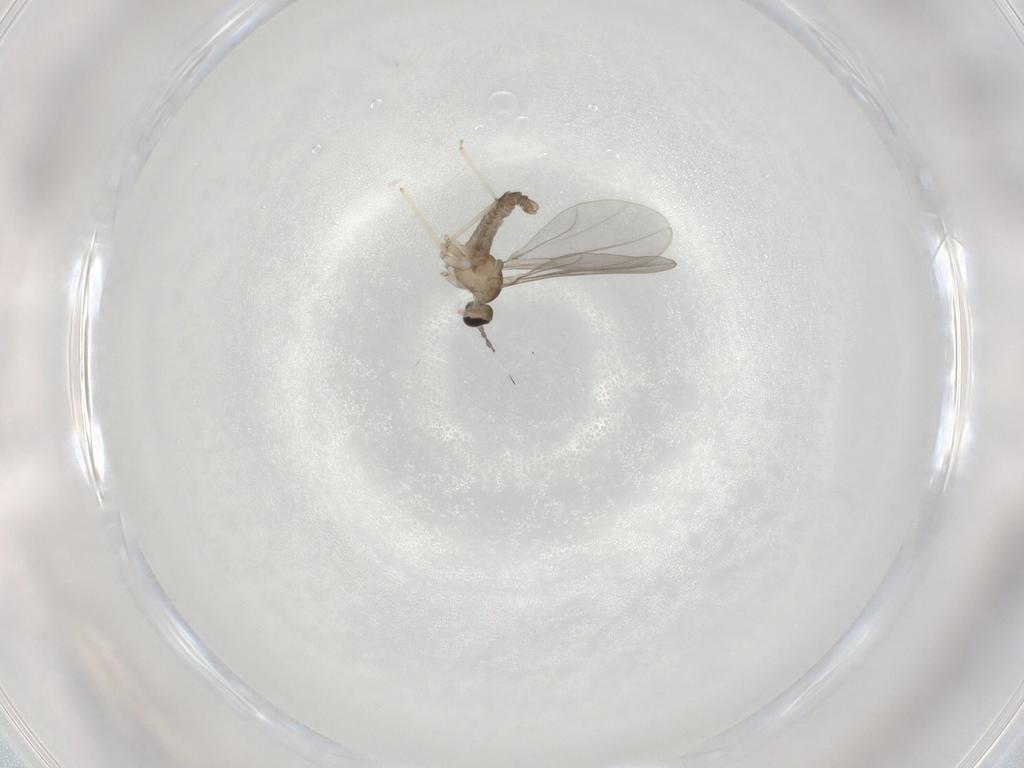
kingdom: Animalia
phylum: Arthropoda
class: Insecta
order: Diptera
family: Cecidomyiidae
